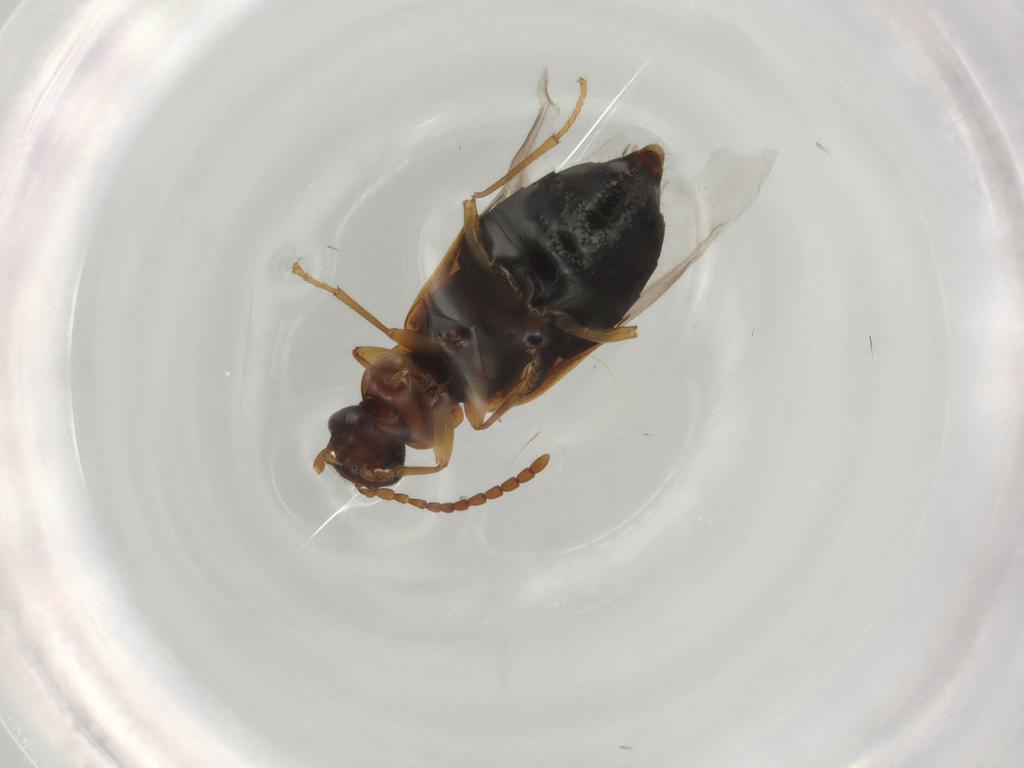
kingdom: Animalia
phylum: Arthropoda
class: Insecta
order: Coleoptera
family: Staphylinidae
